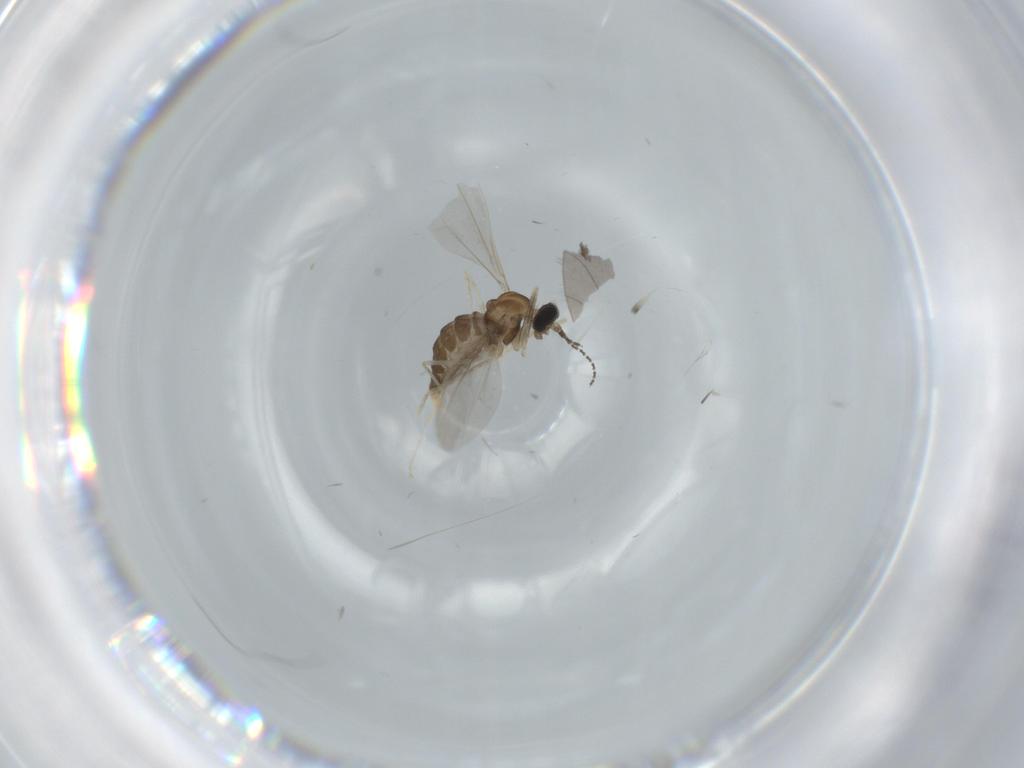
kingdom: Animalia
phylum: Arthropoda
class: Insecta
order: Diptera
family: Cecidomyiidae
